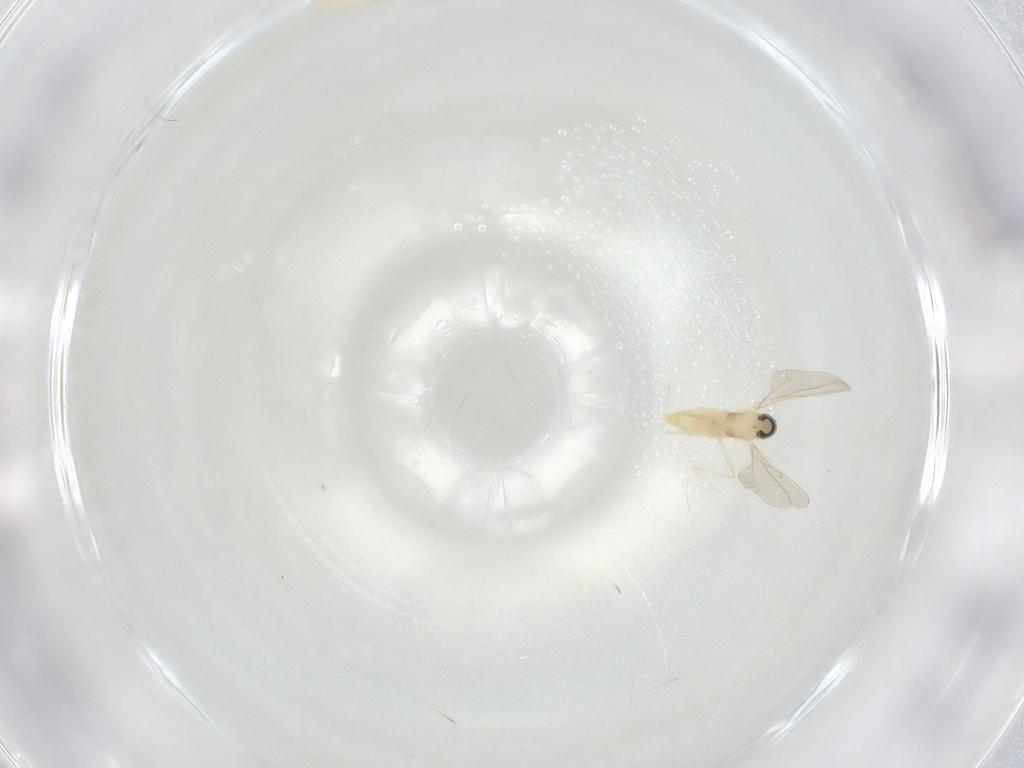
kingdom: Animalia
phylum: Arthropoda
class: Insecta
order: Diptera
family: Cecidomyiidae
